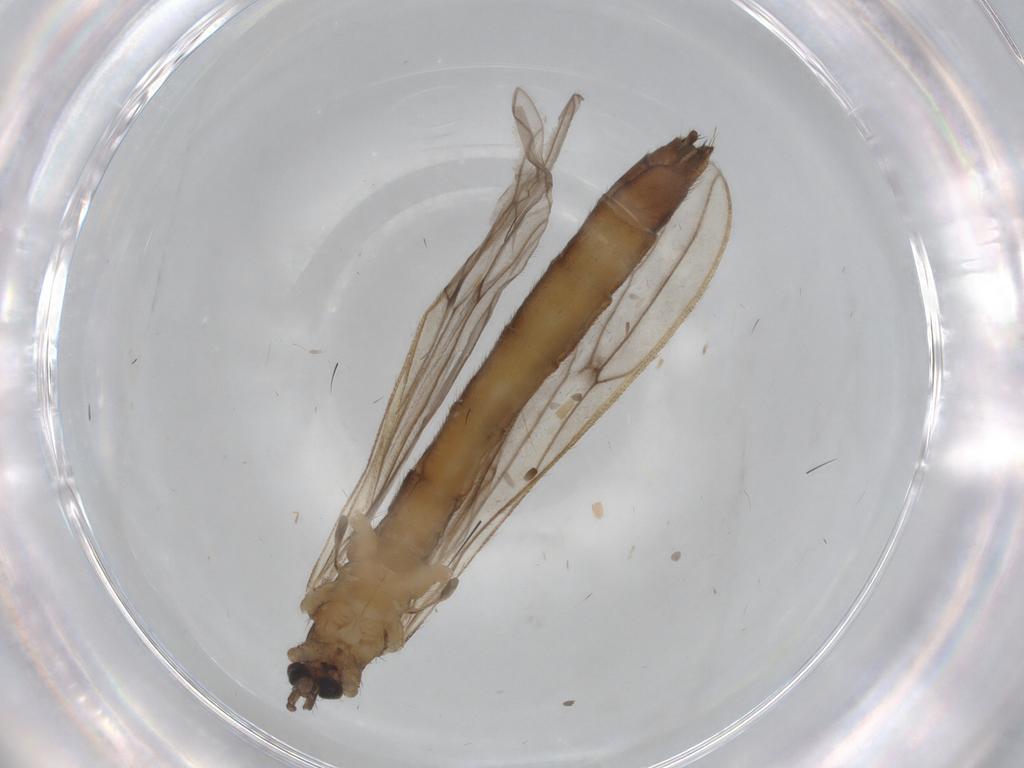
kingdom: Animalia
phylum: Arthropoda
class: Insecta
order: Diptera
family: Limoniidae
